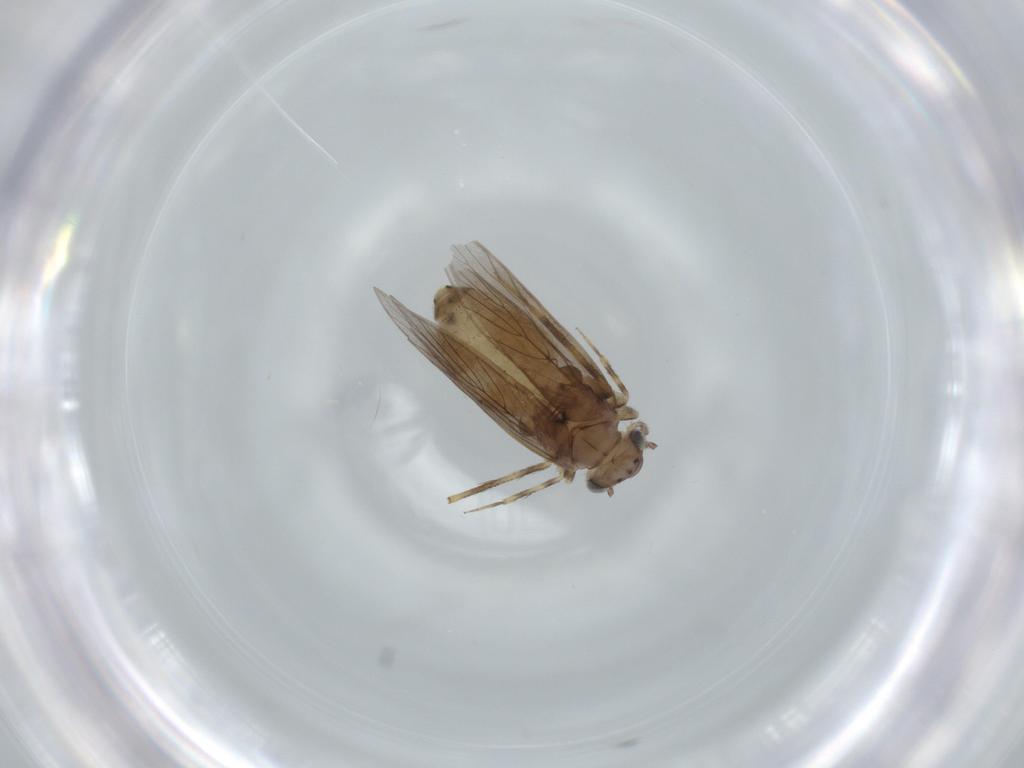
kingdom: Animalia
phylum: Arthropoda
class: Insecta
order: Psocodea
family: Lepidopsocidae
